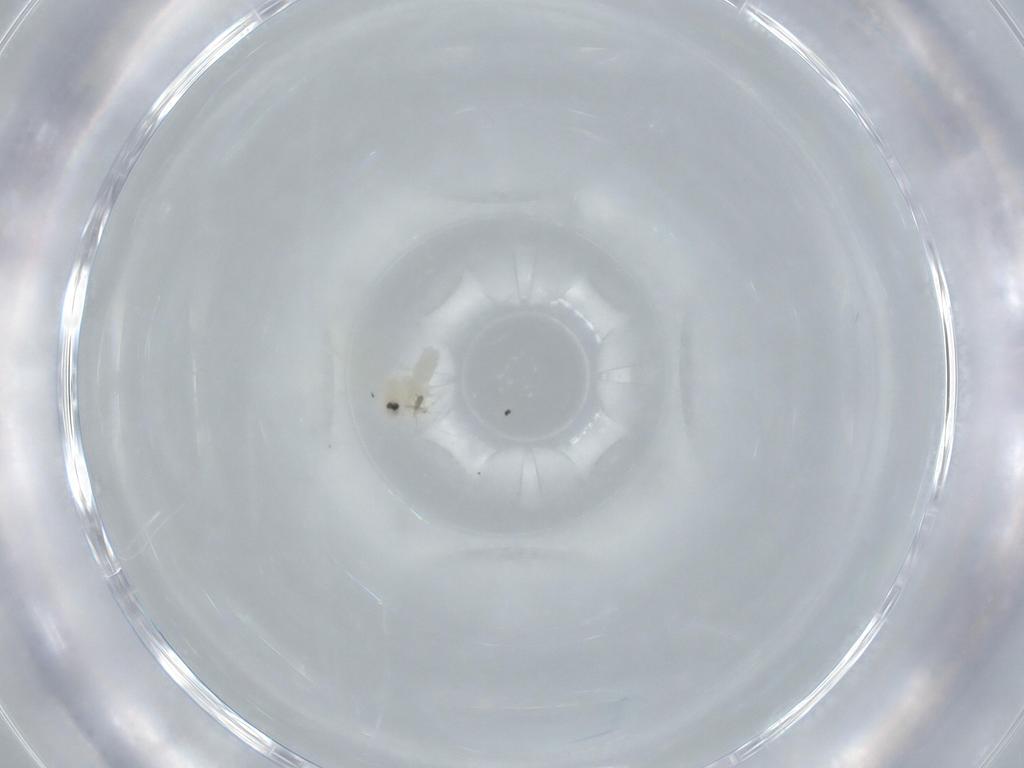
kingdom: Animalia
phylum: Arthropoda
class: Insecta
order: Hemiptera
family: Aleyrodidae
